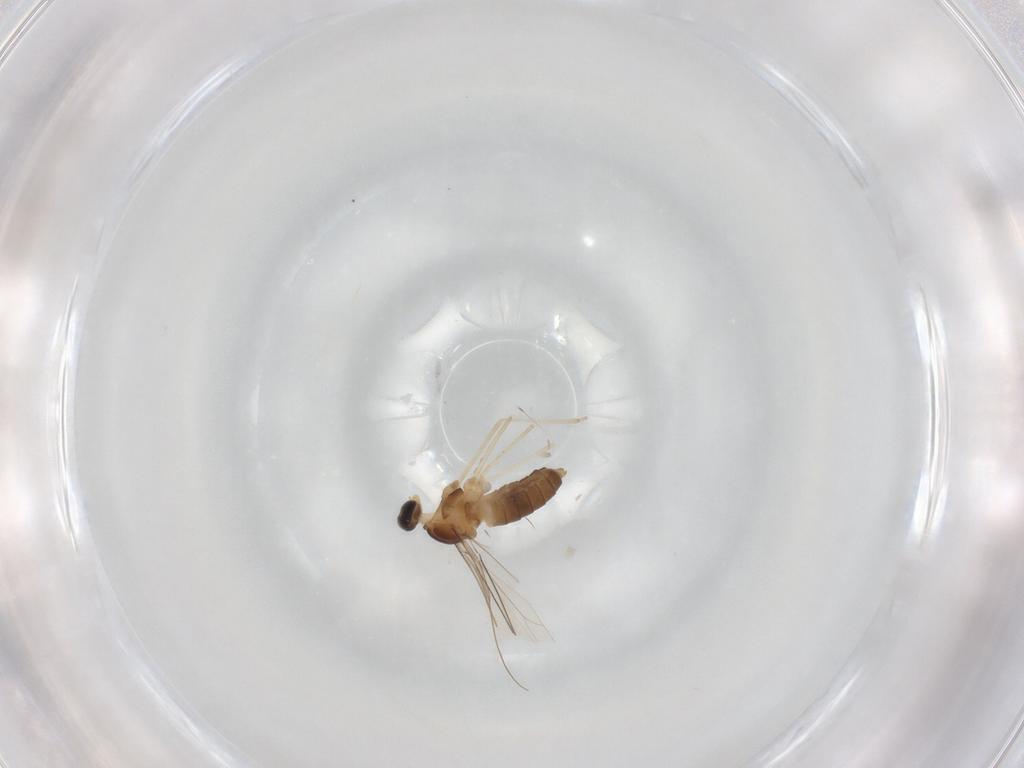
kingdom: Animalia
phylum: Arthropoda
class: Insecta
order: Diptera
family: Cecidomyiidae
